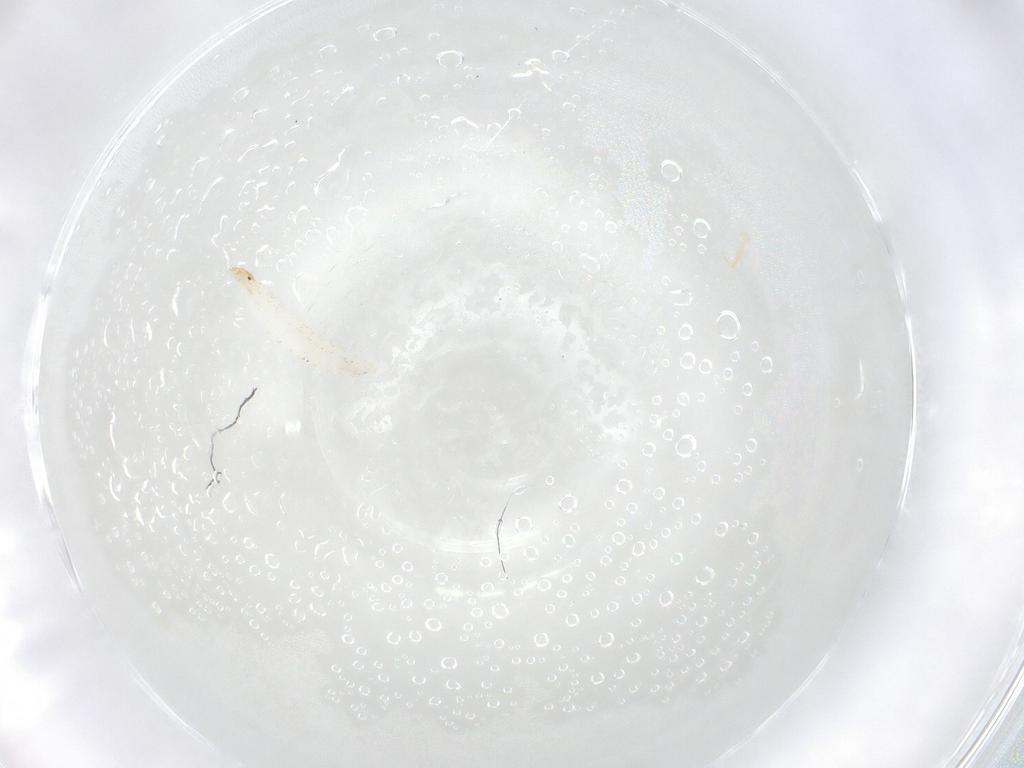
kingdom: Animalia
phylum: Arthropoda
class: Insecta
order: Diptera
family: Stratiomyidae
